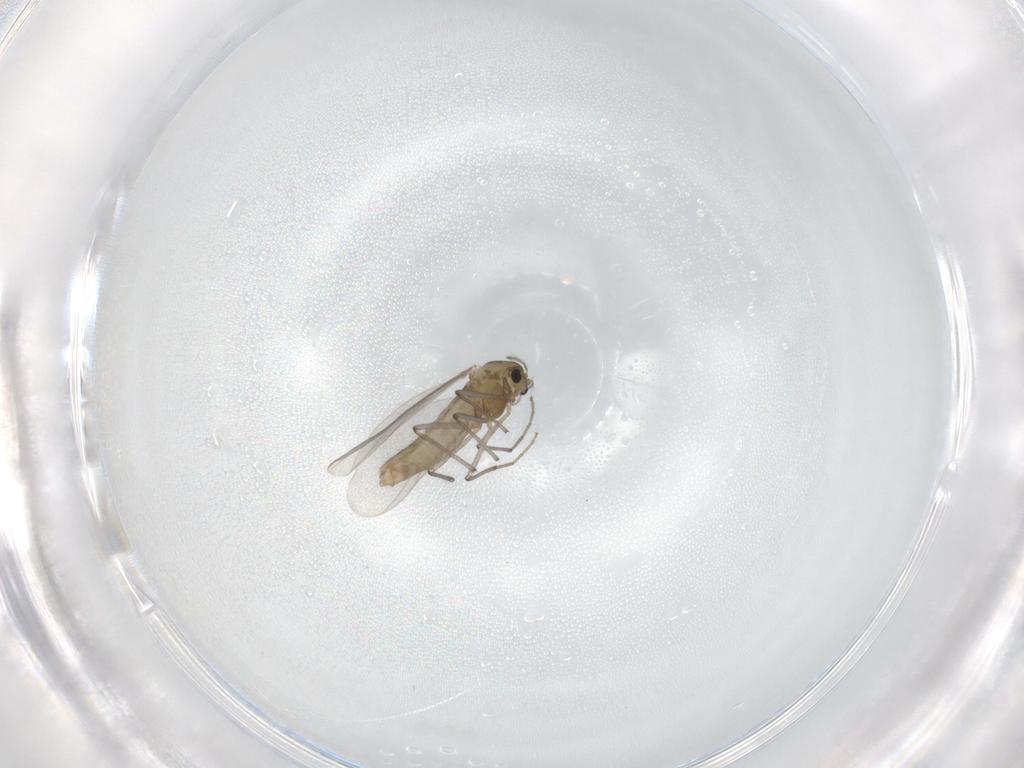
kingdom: Animalia
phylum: Arthropoda
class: Insecta
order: Diptera
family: Chironomidae
